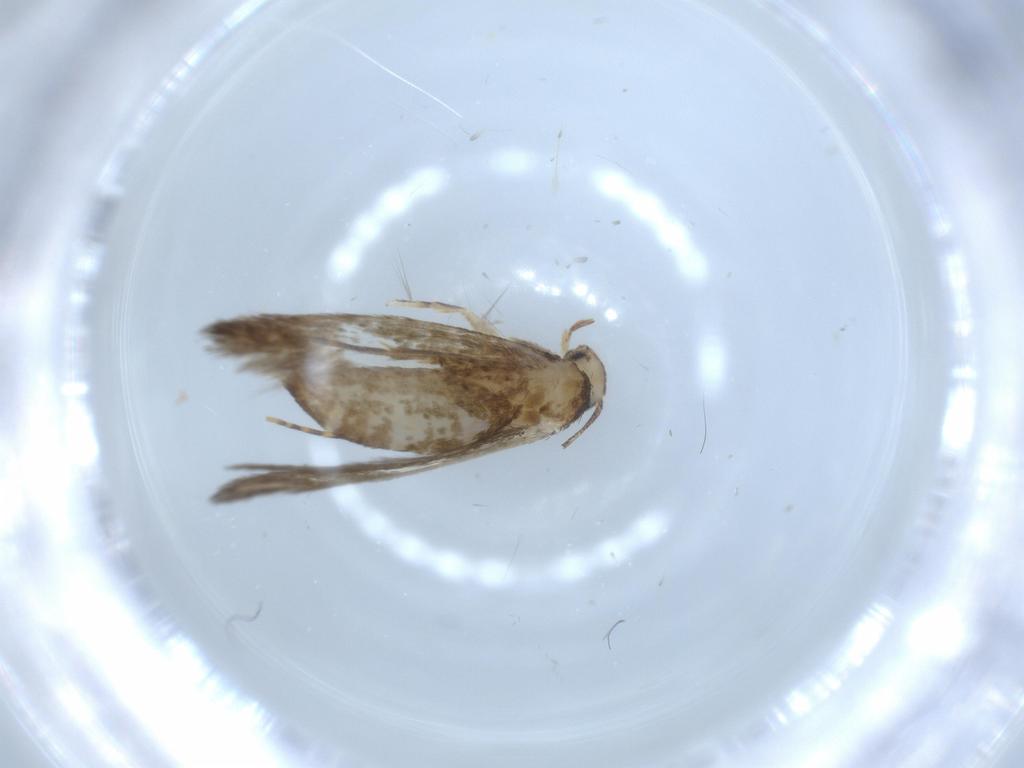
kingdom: Animalia
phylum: Arthropoda
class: Insecta
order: Lepidoptera
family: Tineidae
